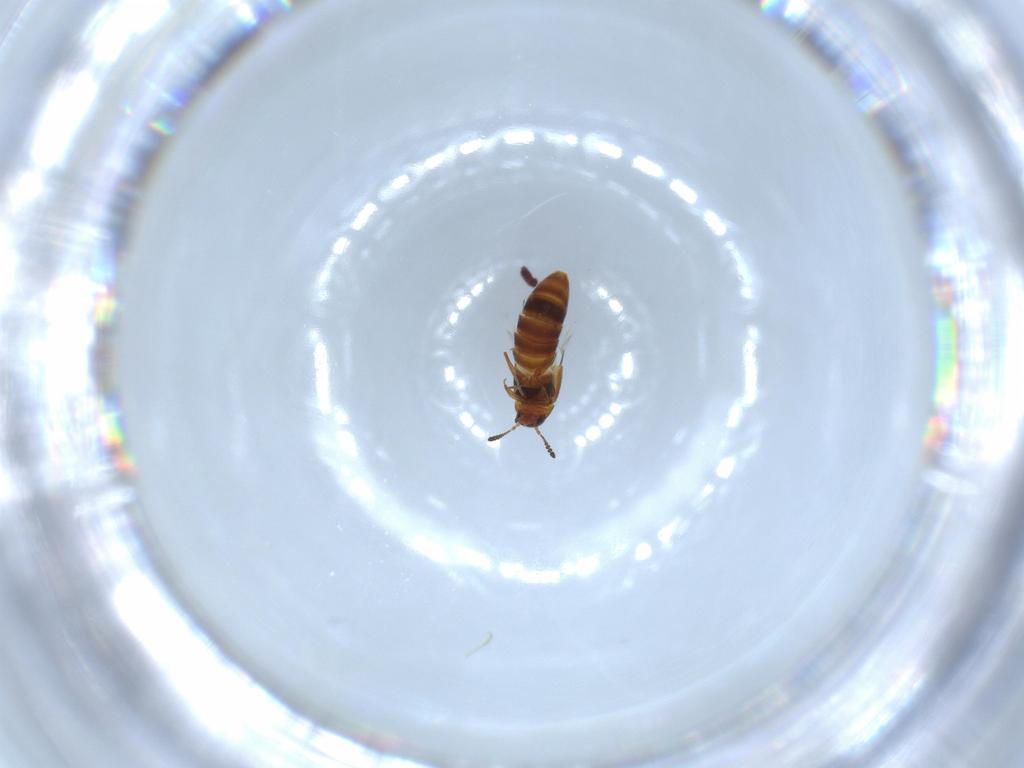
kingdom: Animalia
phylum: Arthropoda
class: Insecta
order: Coleoptera
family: Staphylinidae
